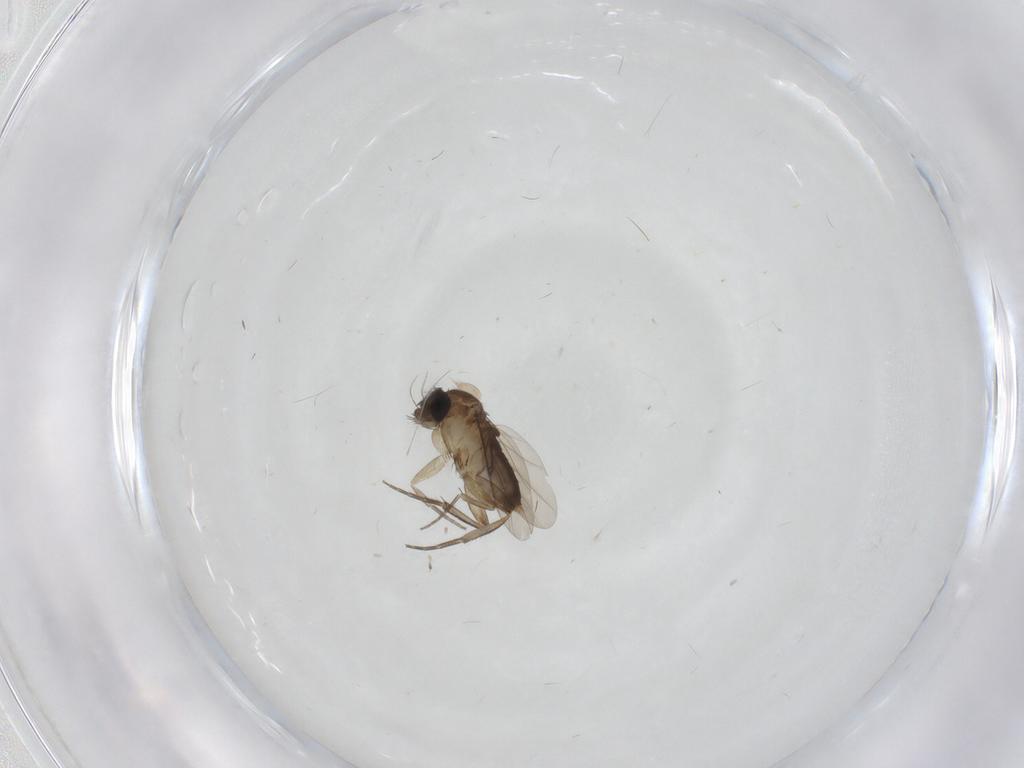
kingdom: Animalia
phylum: Arthropoda
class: Insecta
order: Diptera
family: Phoridae
